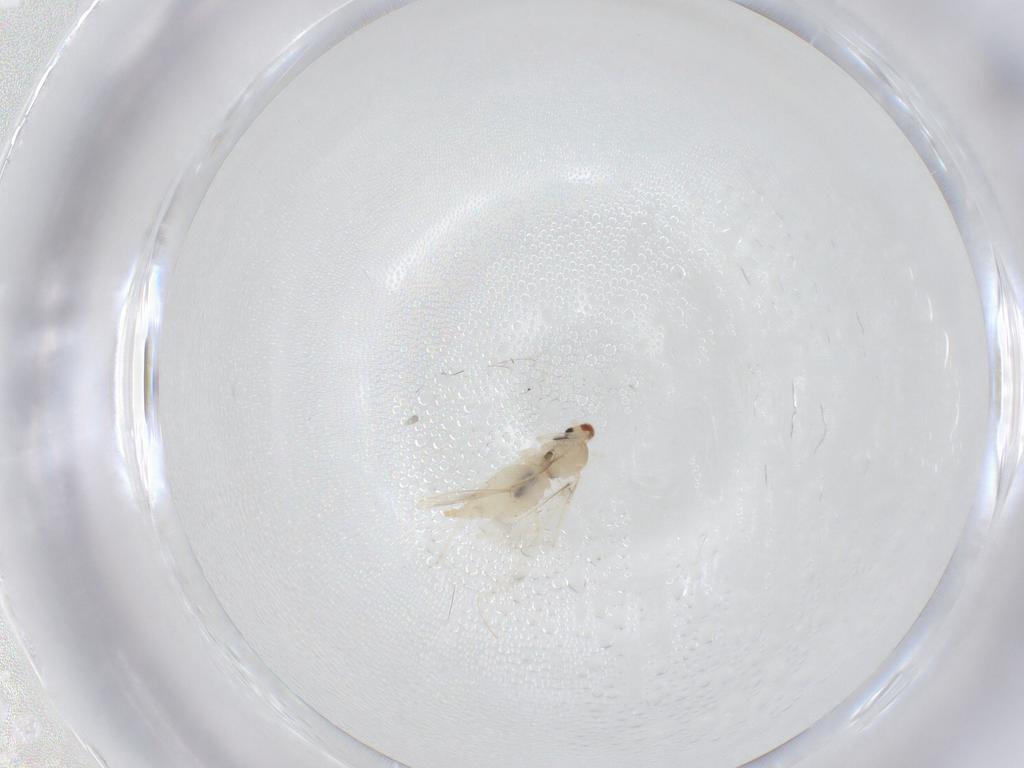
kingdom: Animalia
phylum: Arthropoda
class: Insecta
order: Diptera
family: Cecidomyiidae
